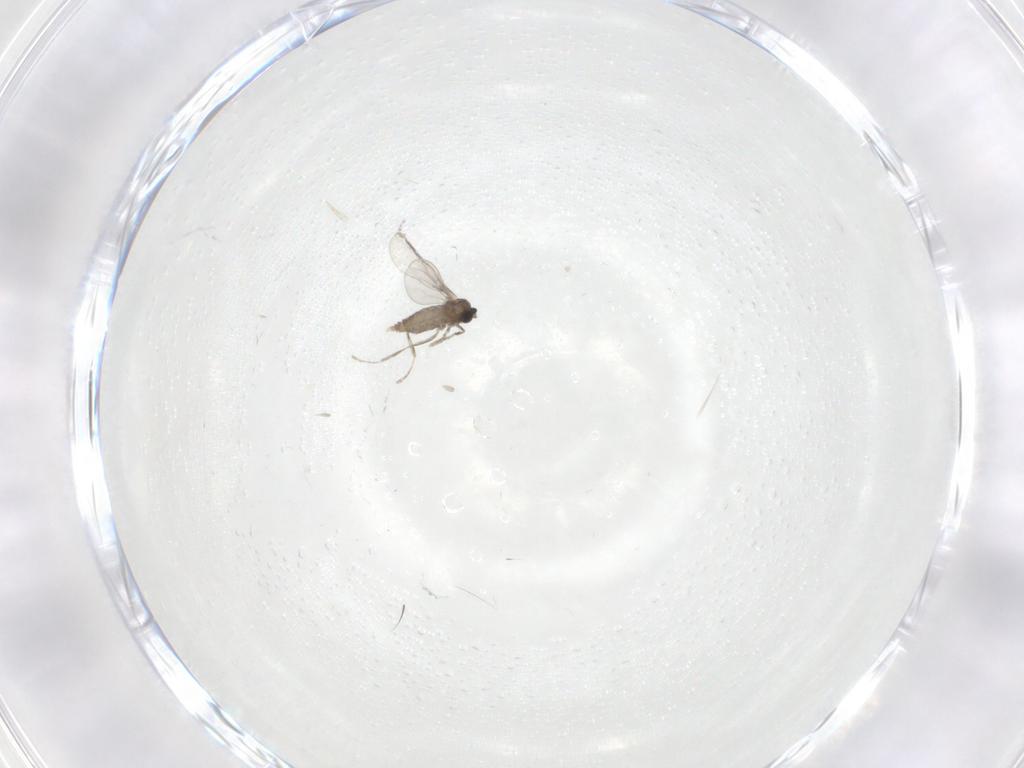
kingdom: Animalia
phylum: Arthropoda
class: Insecta
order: Diptera
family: Cecidomyiidae
